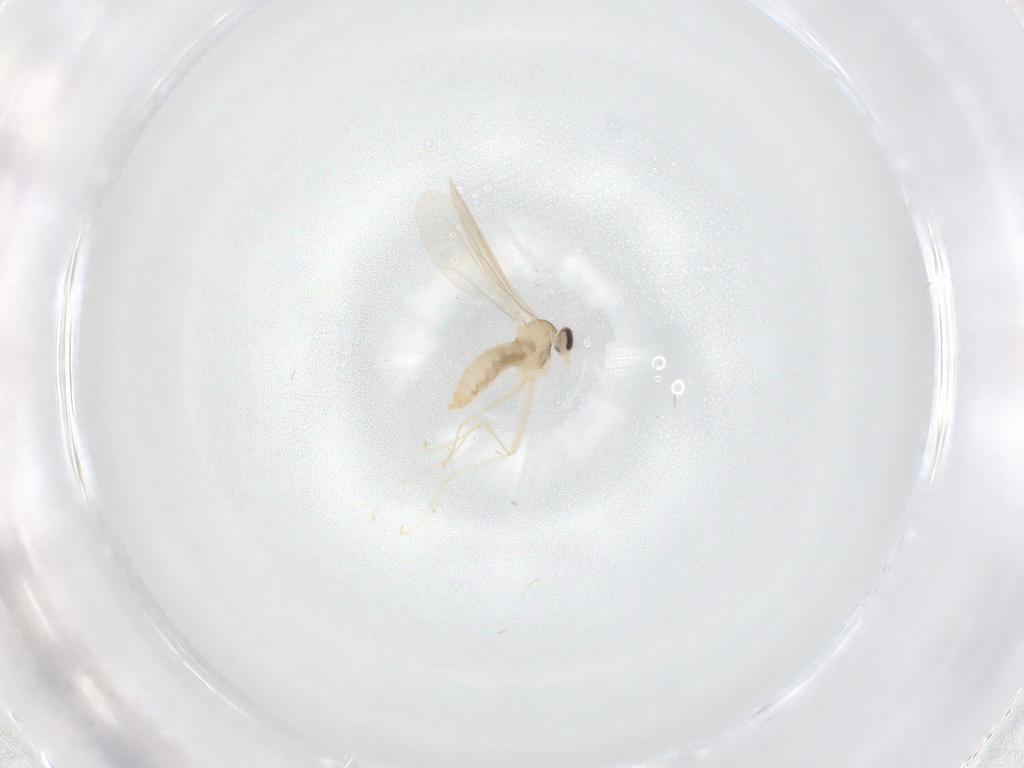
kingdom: Animalia
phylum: Arthropoda
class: Insecta
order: Diptera
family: Cecidomyiidae
